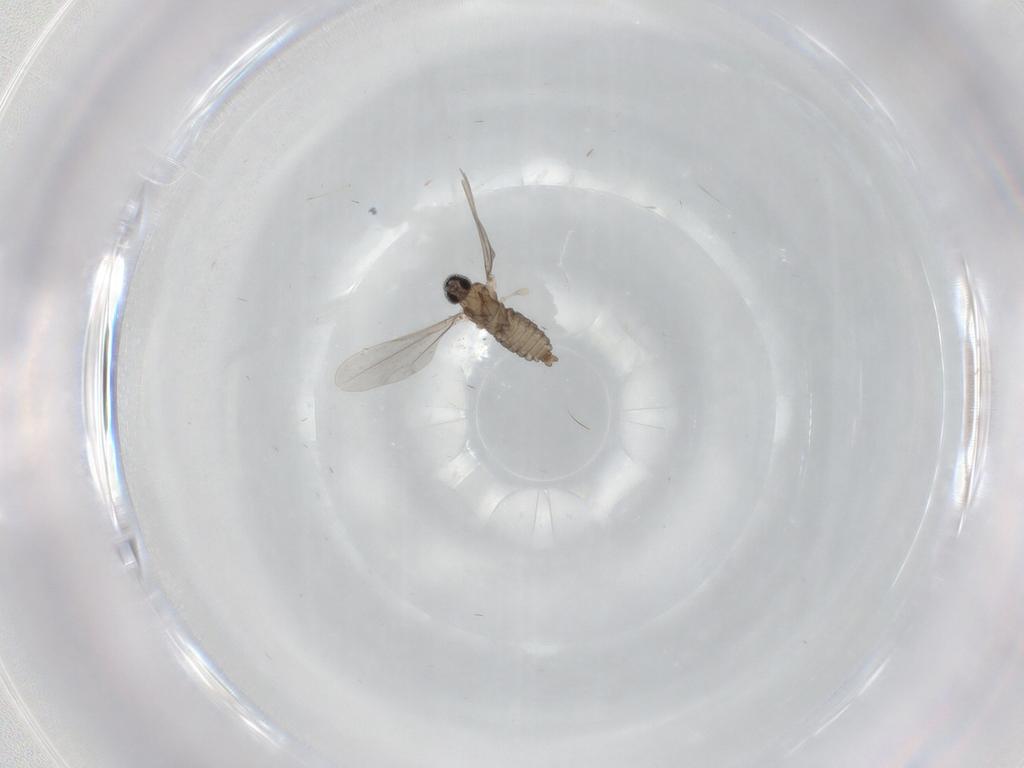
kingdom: Animalia
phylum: Arthropoda
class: Insecta
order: Diptera
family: Cecidomyiidae
